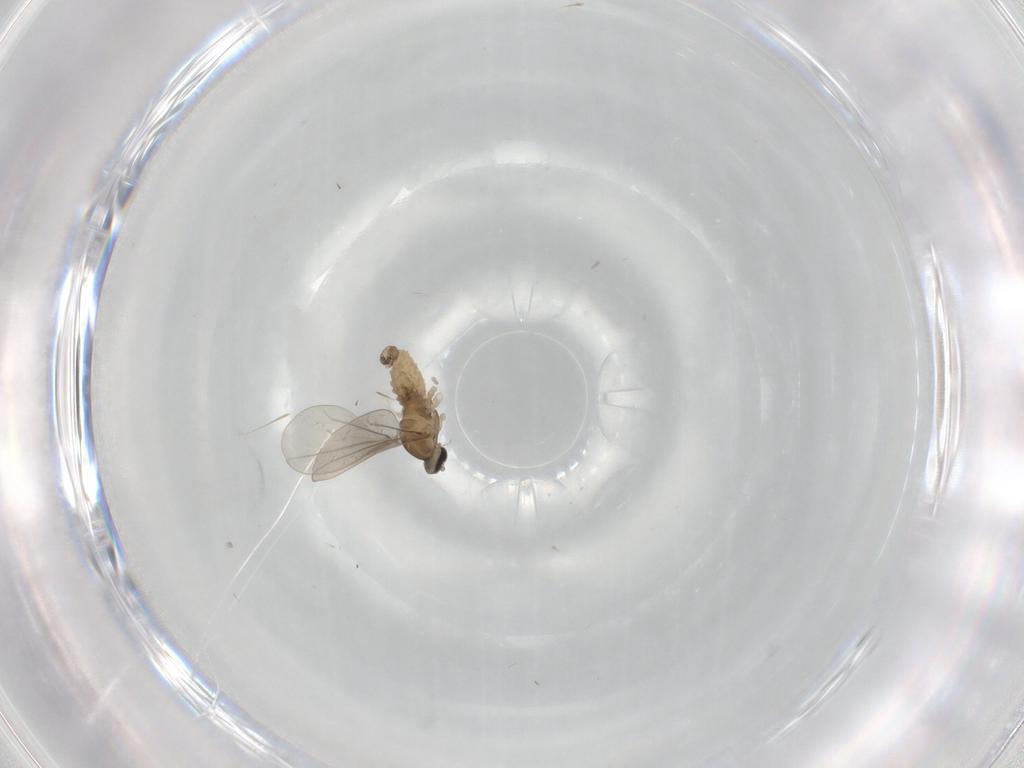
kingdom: Animalia
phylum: Arthropoda
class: Insecta
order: Diptera
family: Cecidomyiidae
